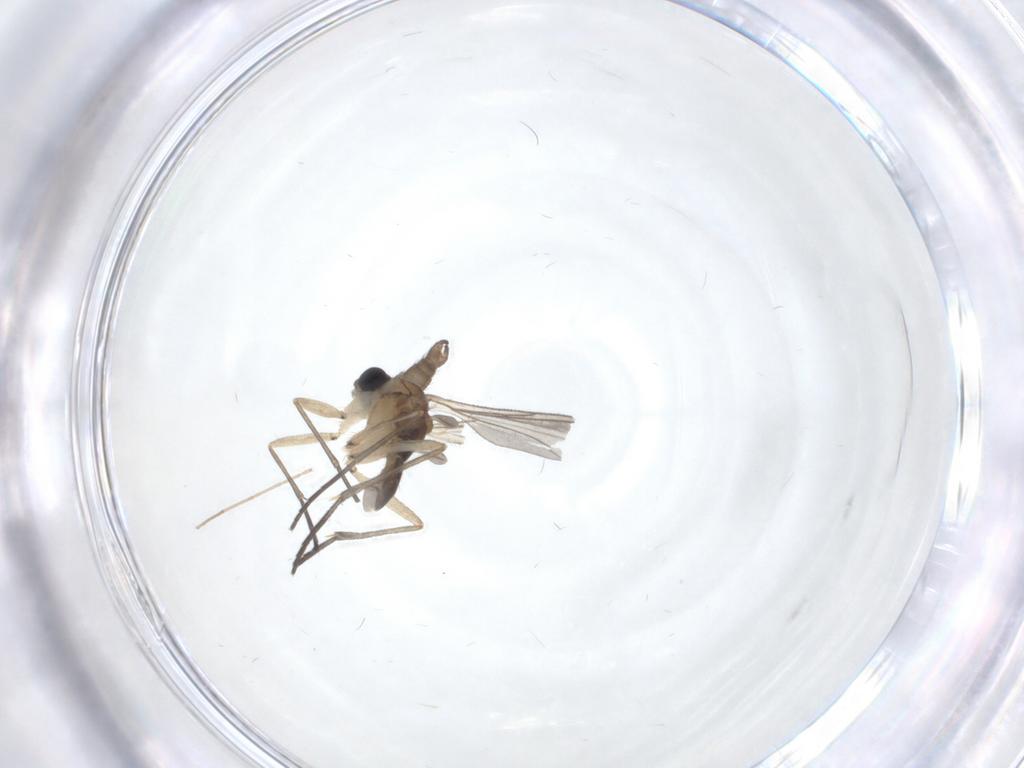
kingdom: Animalia
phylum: Arthropoda
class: Insecta
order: Diptera
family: Sciaridae
